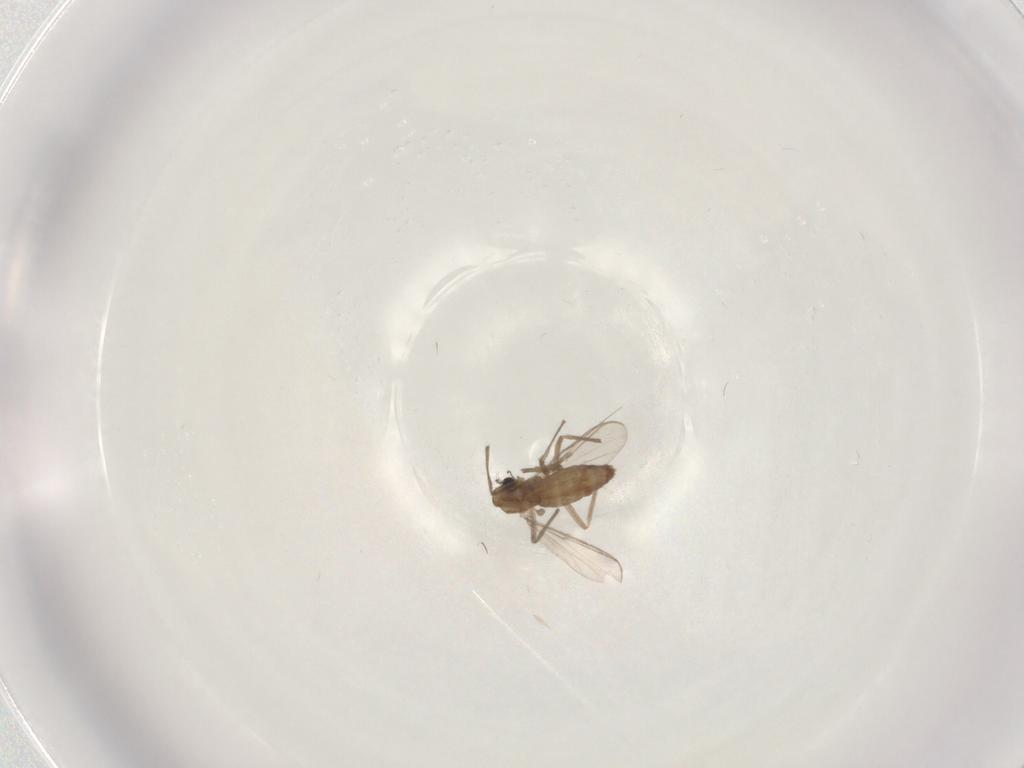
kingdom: Animalia
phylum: Arthropoda
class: Insecta
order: Diptera
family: Chironomidae
